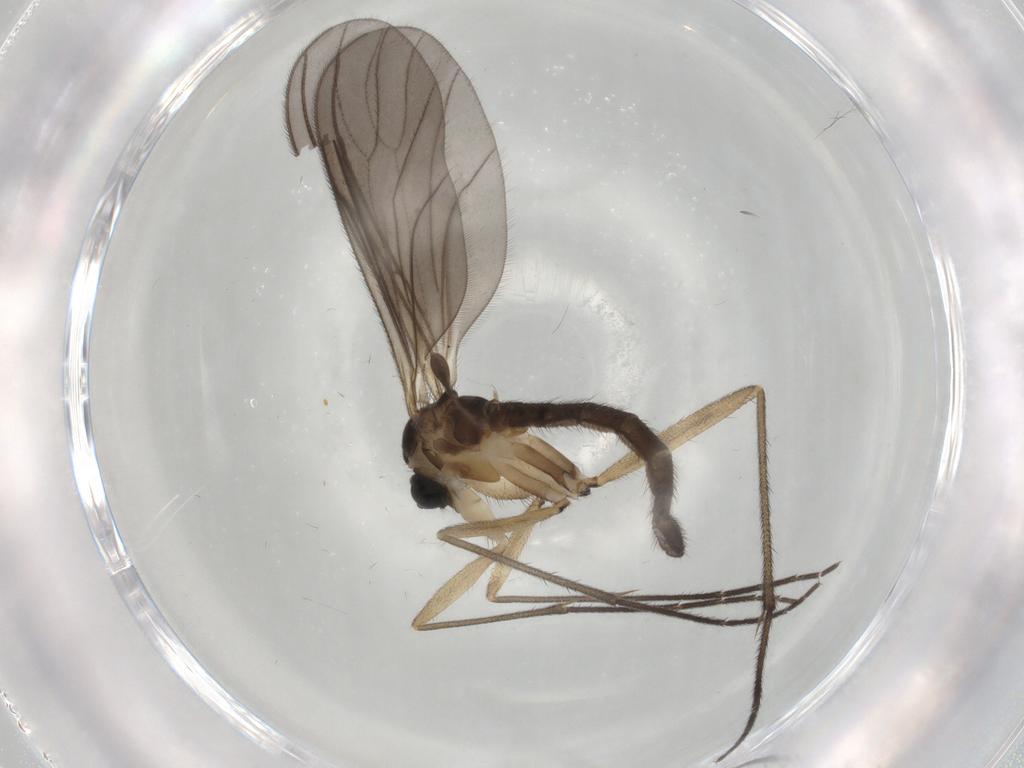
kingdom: Animalia
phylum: Arthropoda
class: Insecta
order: Diptera
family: Sciaridae
